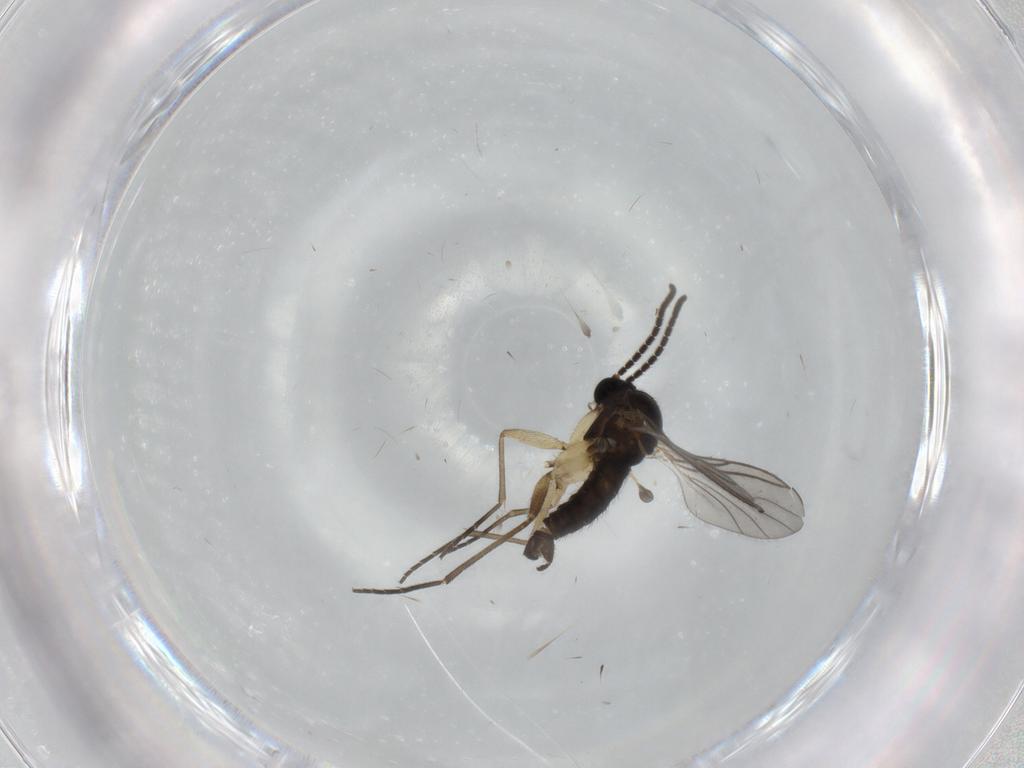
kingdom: Animalia
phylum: Arthropoda
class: Insecta
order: Diptera
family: Sciaridae
